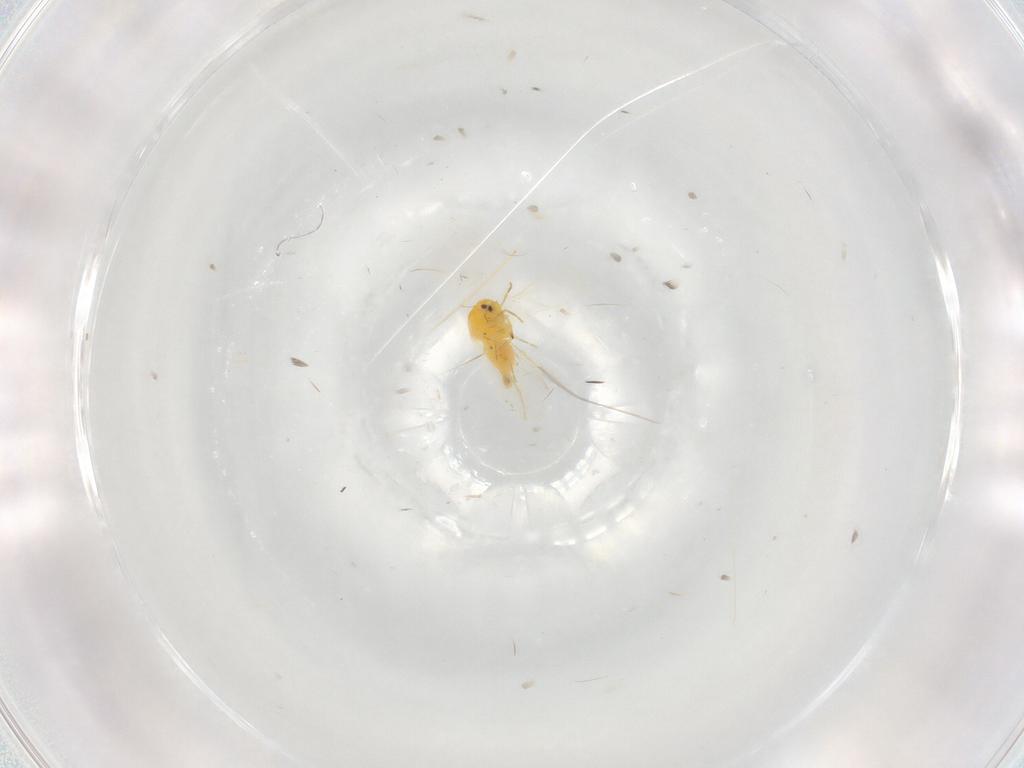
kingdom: Animalia
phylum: Arthropoda
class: Insecta
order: Hemiptera
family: Aleyrodidae
